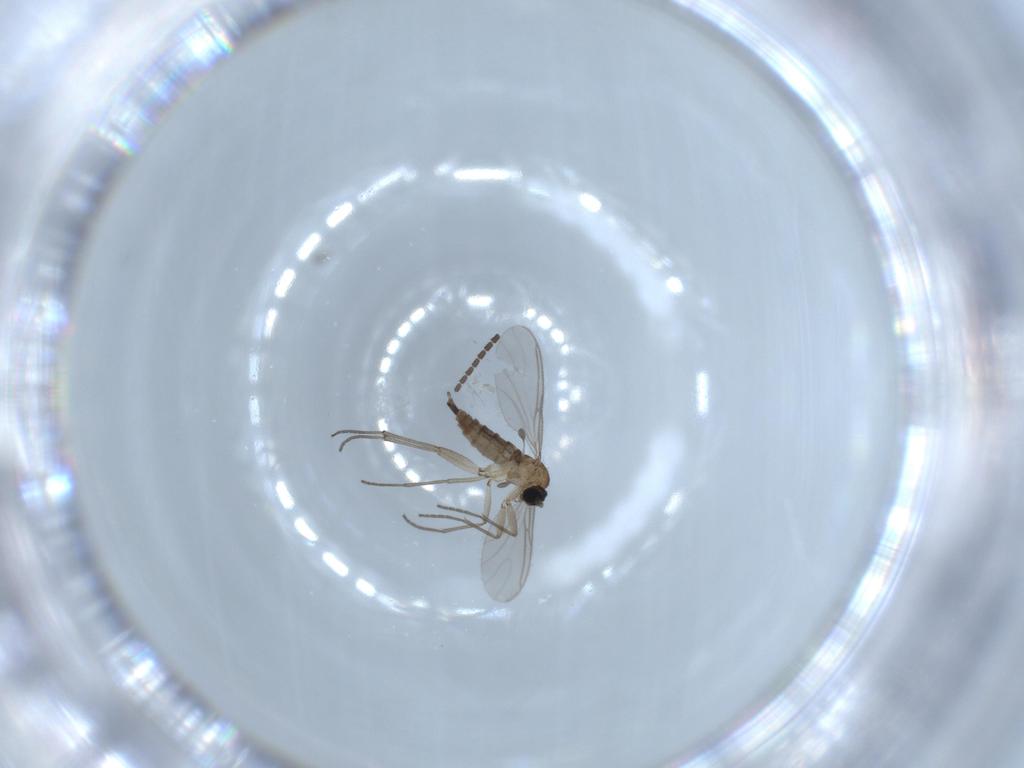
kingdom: Animalia
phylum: Arthropoda
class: Insecta
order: Diptera
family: Sciaridae
